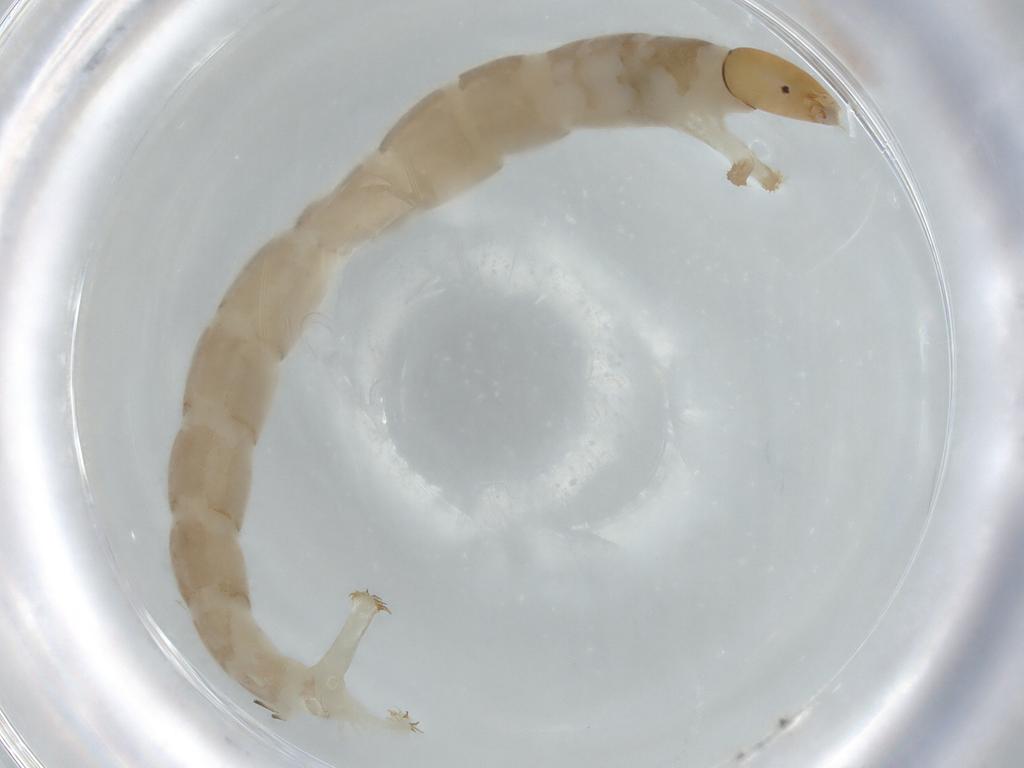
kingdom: Animalia
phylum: Arthropoda
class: Insecta
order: Diptera
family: Chironomidae
